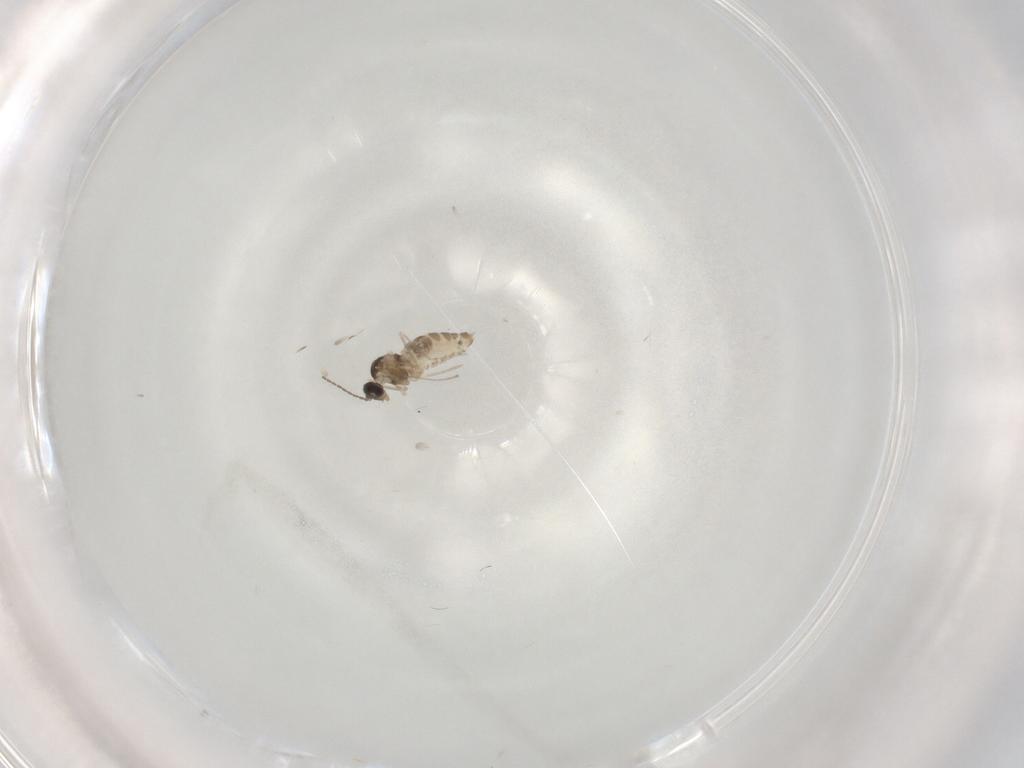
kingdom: Animalia
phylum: Arthropoda
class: Insecta
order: Diptera
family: Cecidomyiidae
